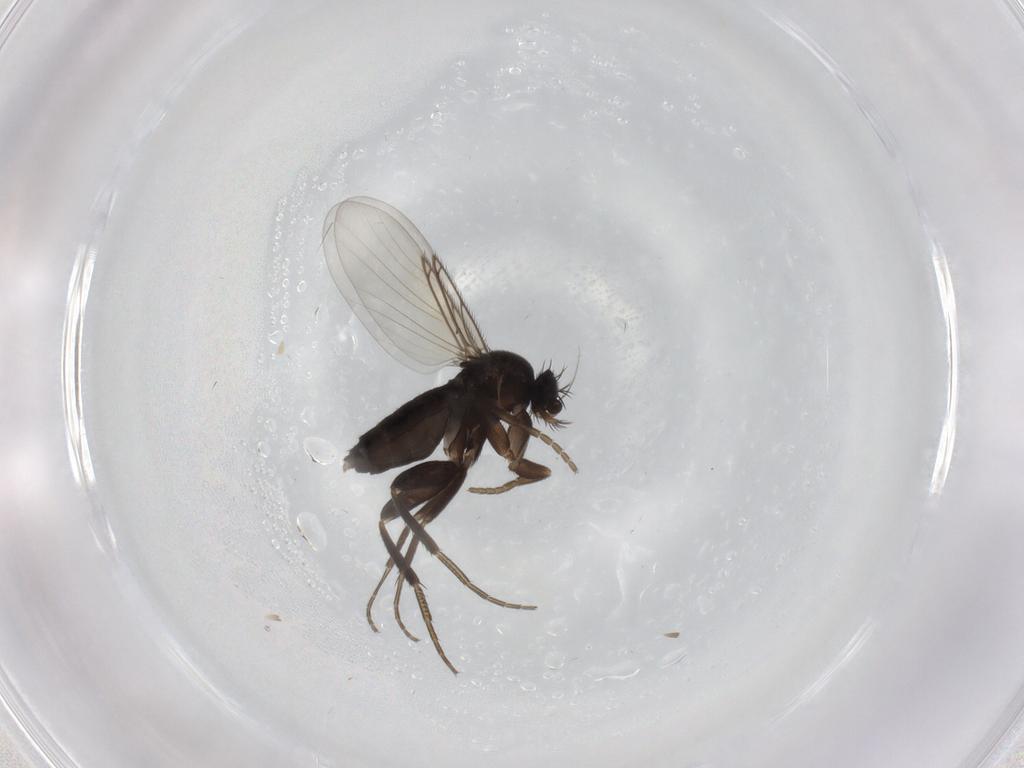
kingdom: Animalia
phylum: Arthropoda
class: Insecta
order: Diptera
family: Phoridae
